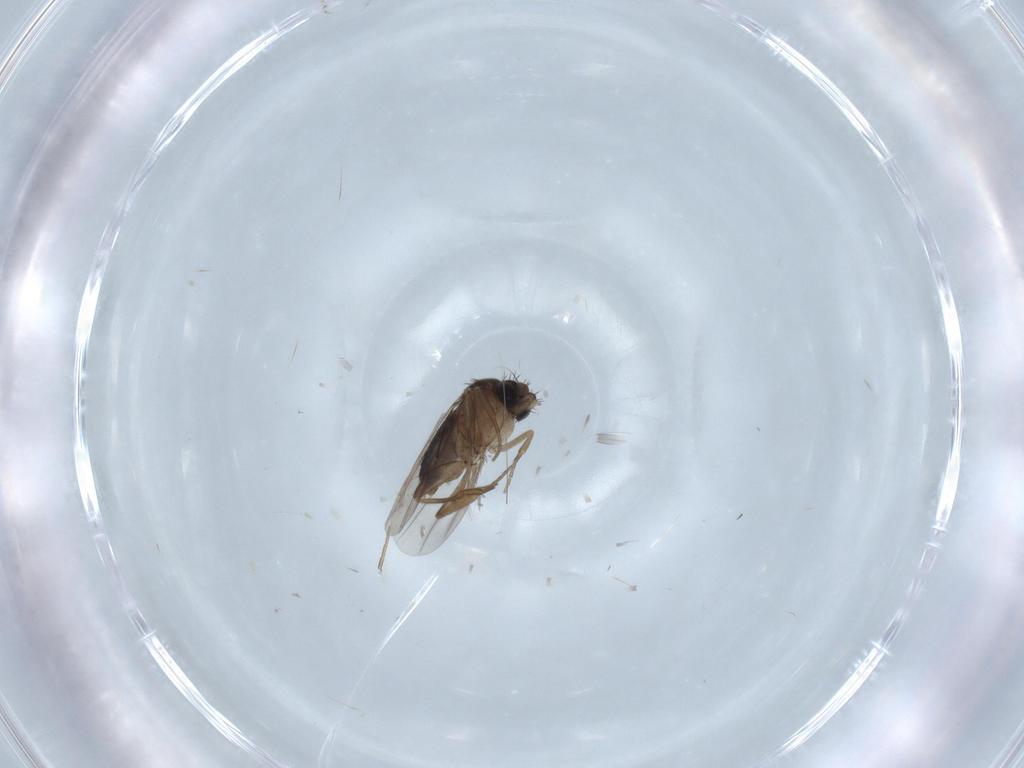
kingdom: Animalia
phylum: Arthropoda
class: Insecta
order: Diptera
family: Phoridae
